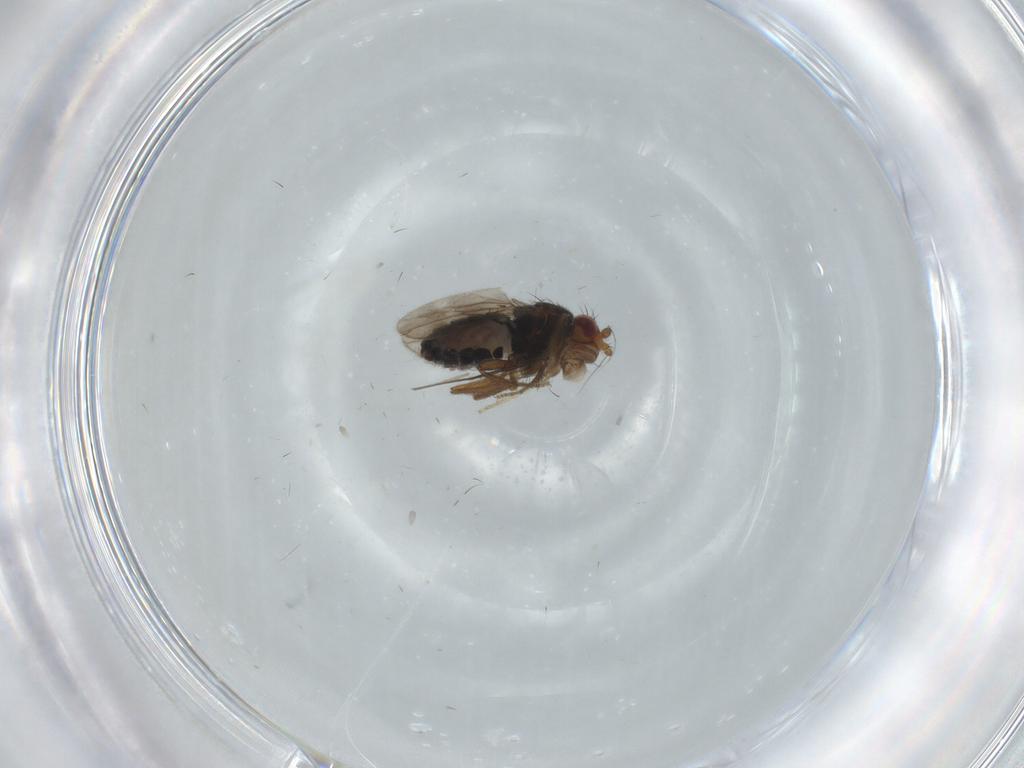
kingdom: Animalia
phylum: Arthropoda
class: Insecta
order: Diptera
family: Sphaeroceridae
